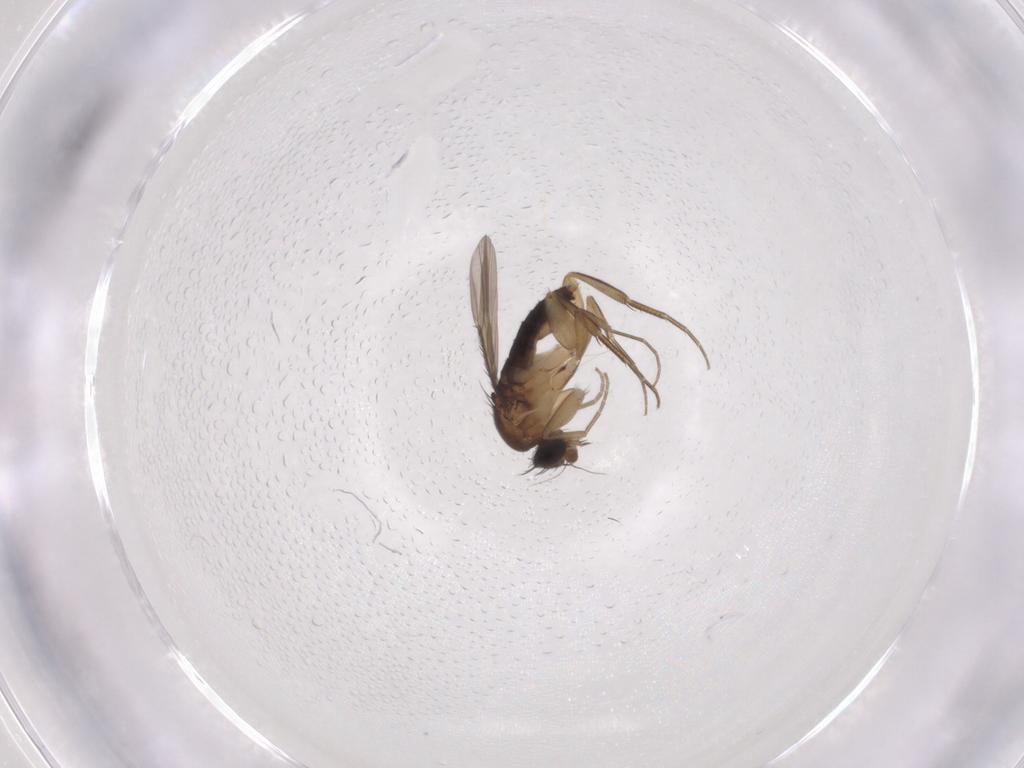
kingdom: Animalia
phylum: Arthropoda
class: Insecta
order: Diptera
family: Phoridae
